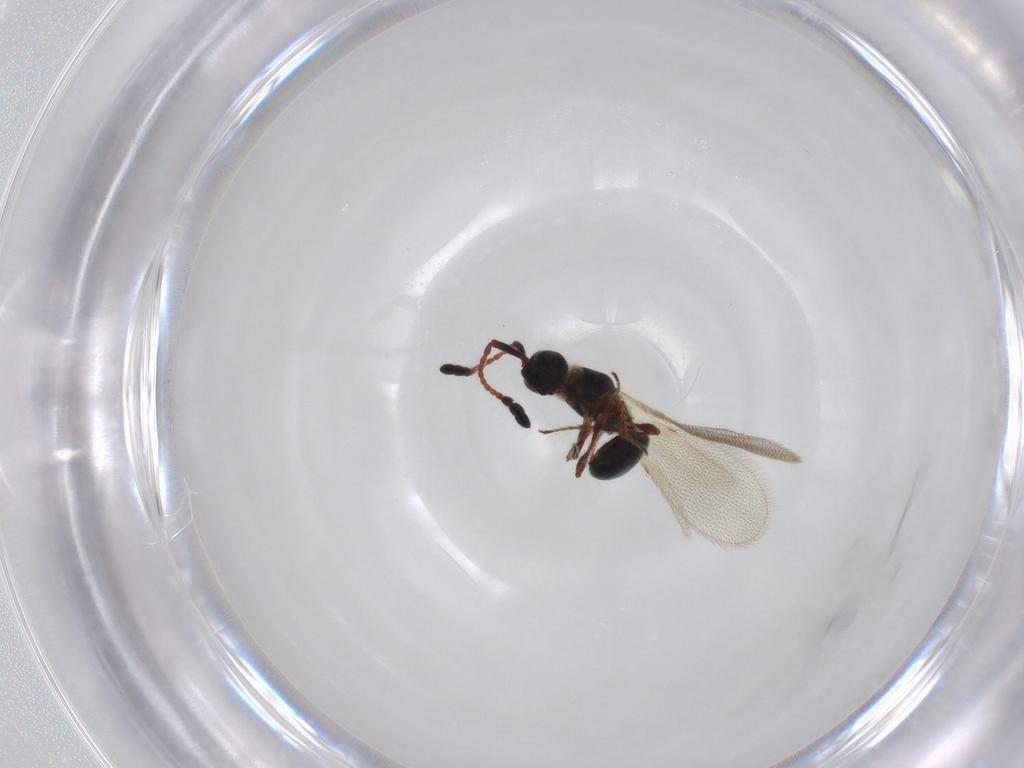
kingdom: Animalia
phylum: Arthropoda
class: Insecta
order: Hymenoptera
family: Diapriidae
